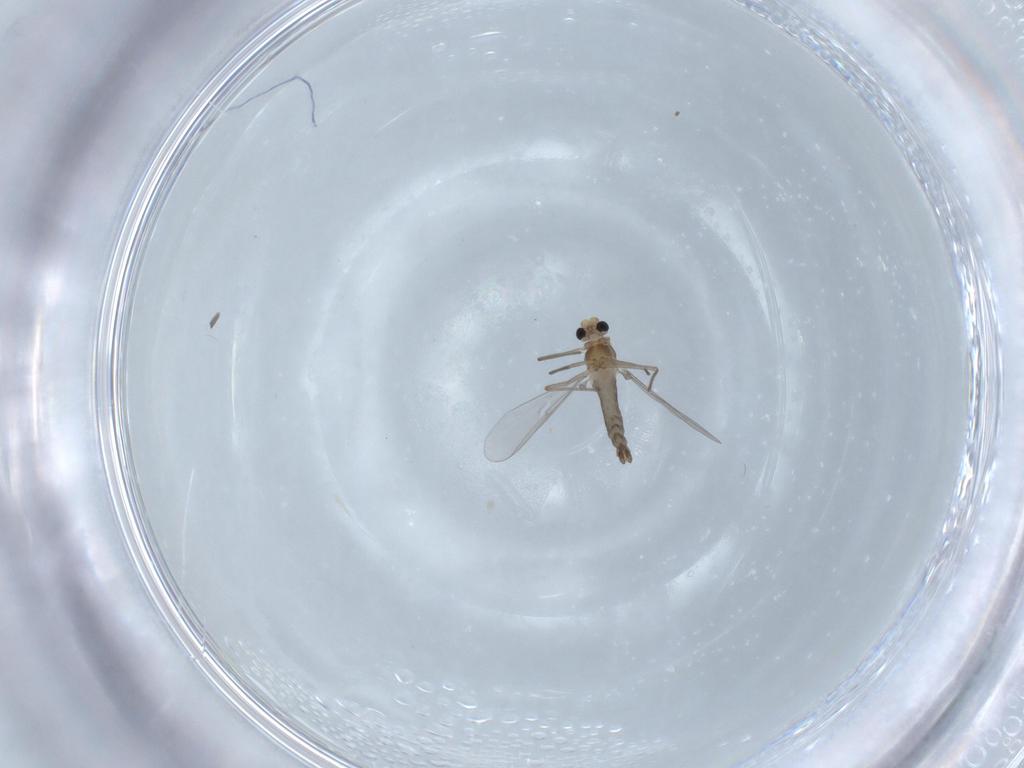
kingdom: Animalia
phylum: Arthropoda
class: Insecta
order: Diptera
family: Chironomidae
